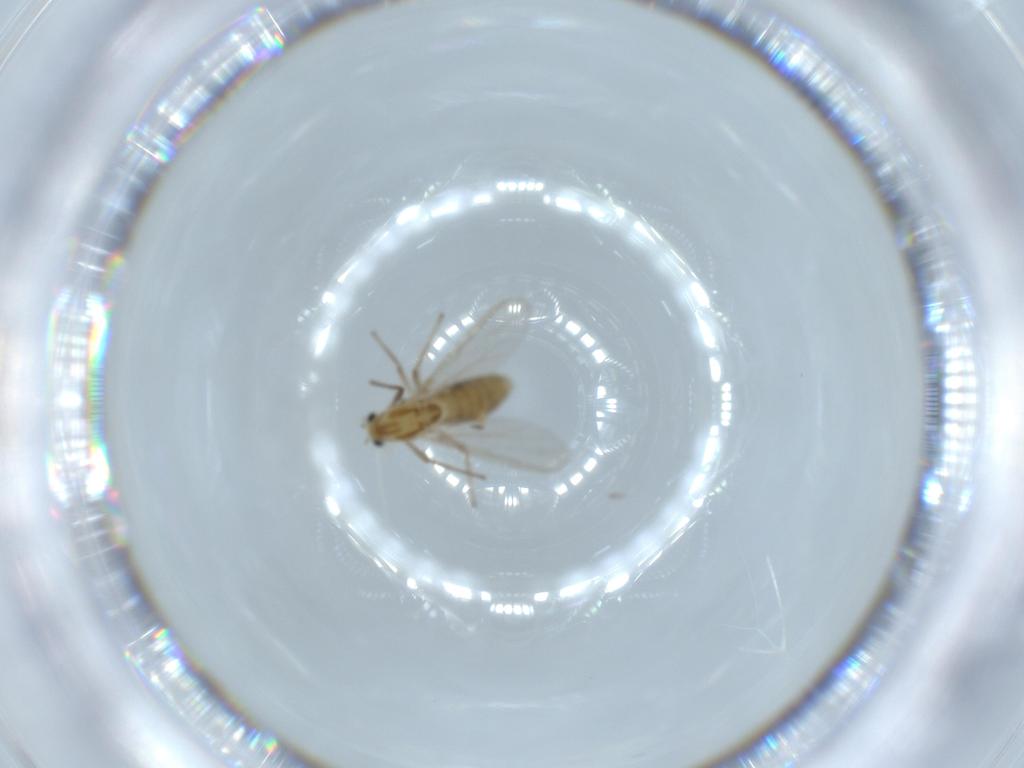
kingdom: Animalia
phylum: Arthropoda
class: Insecta
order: Diptera
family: Chironomidae
